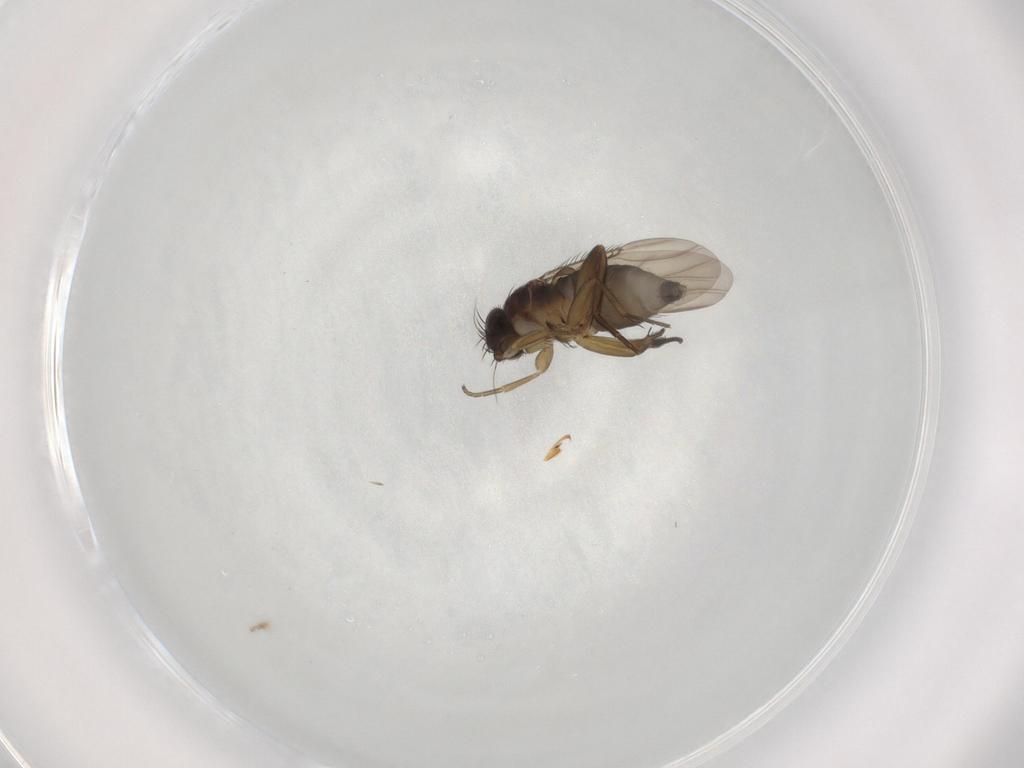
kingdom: Animalia
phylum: Arthropoda
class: Insecta
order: Diptera
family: Phoridae
